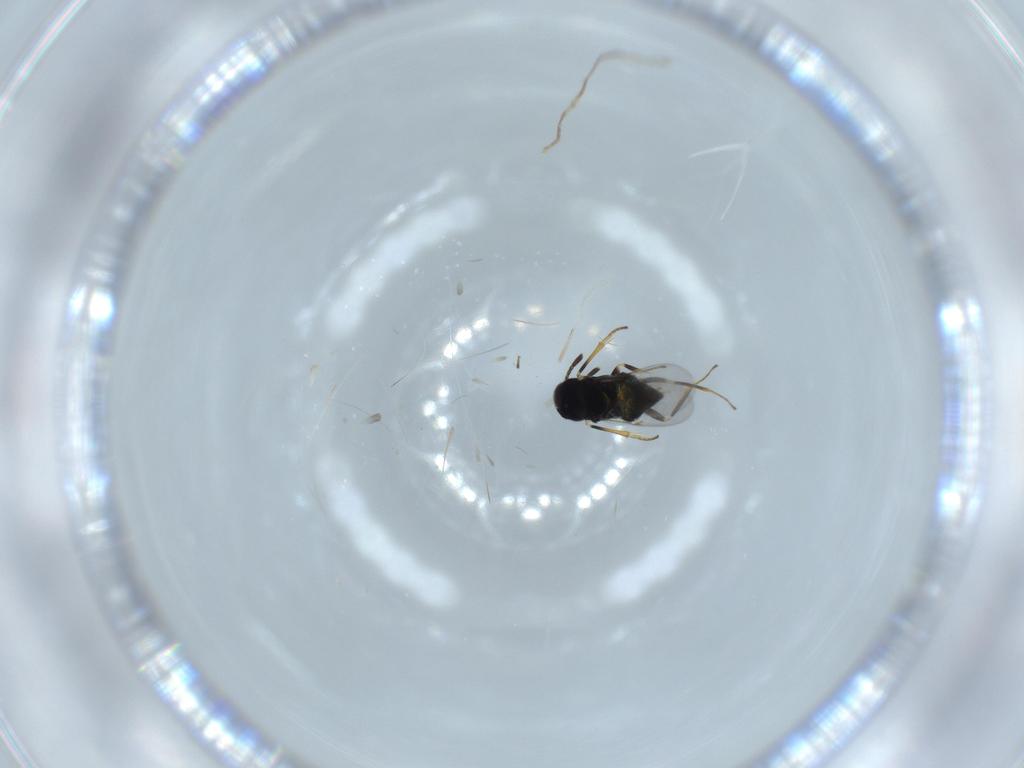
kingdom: Animalia
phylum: Arthropoda
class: Insecta
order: Hymenoptera
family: Encyrtidae
